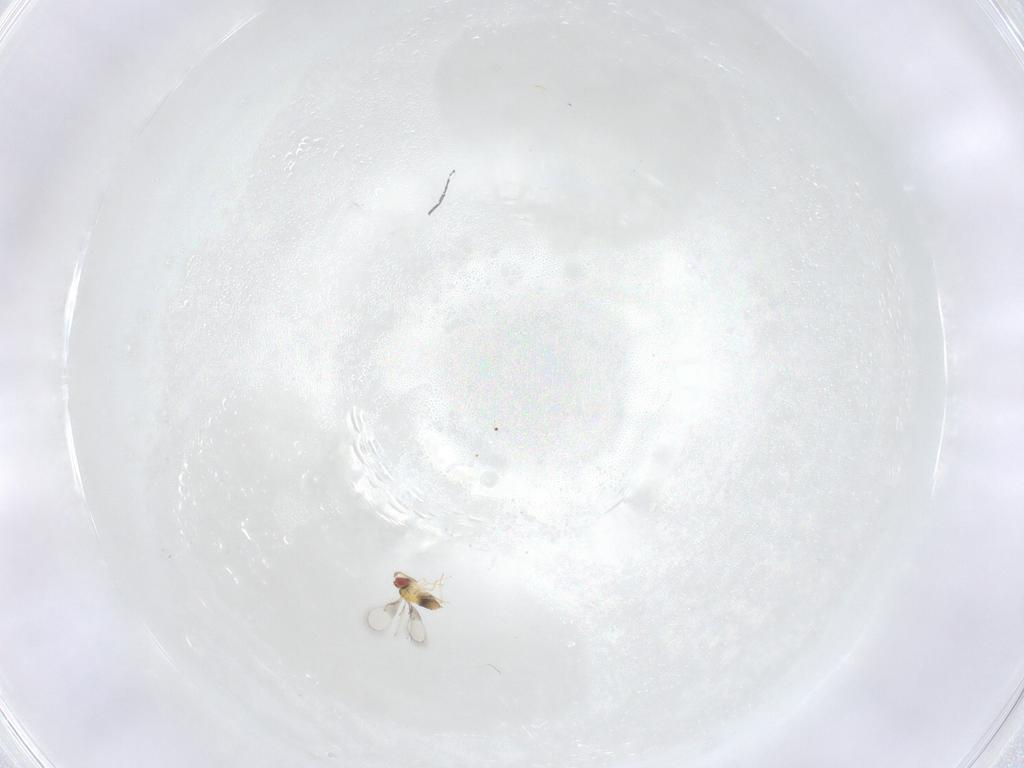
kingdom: Animalia
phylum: Arthropoda
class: Insecta
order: Hymenoptera
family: Trichogrammatidae
